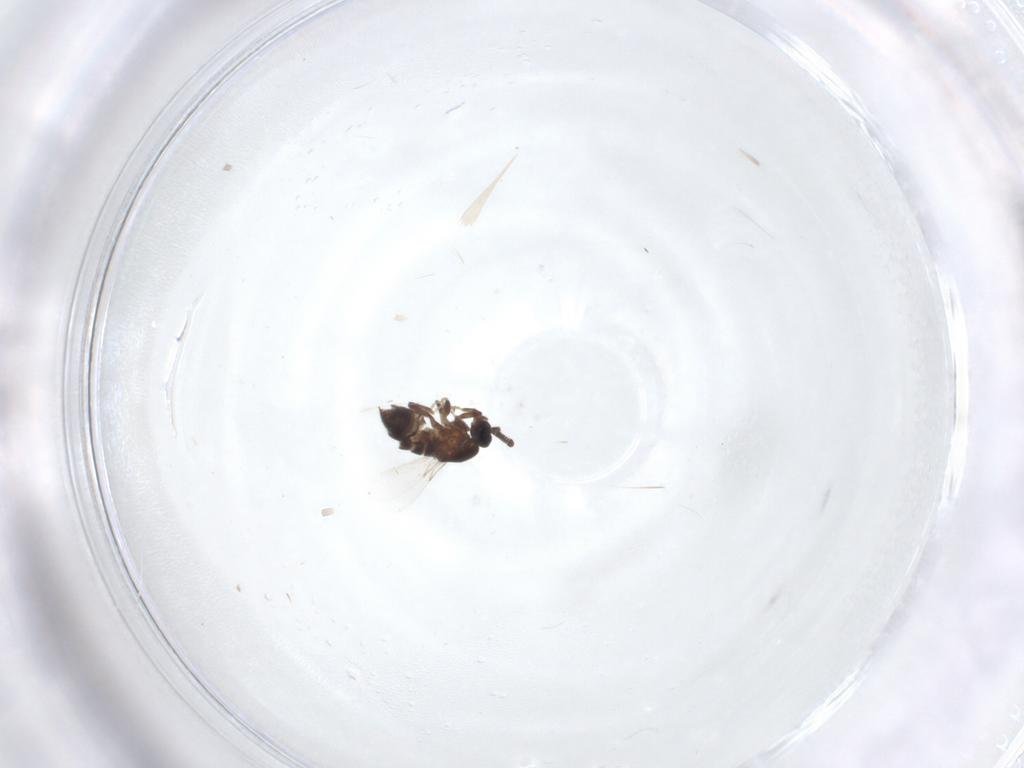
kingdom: Animalia
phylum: Arthropoda
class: Insecta
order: Diptera
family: Scatopsidae
